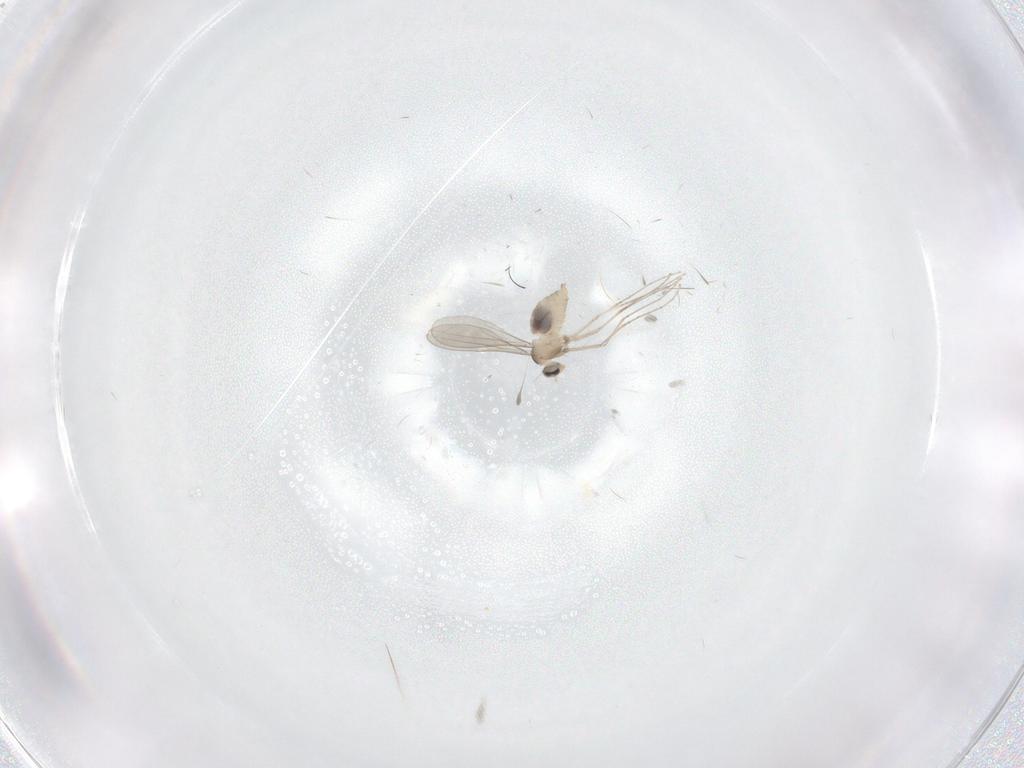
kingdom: Animalia
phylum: Arthropoda
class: Insecta
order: Diptera
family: Cecidomyiidae
